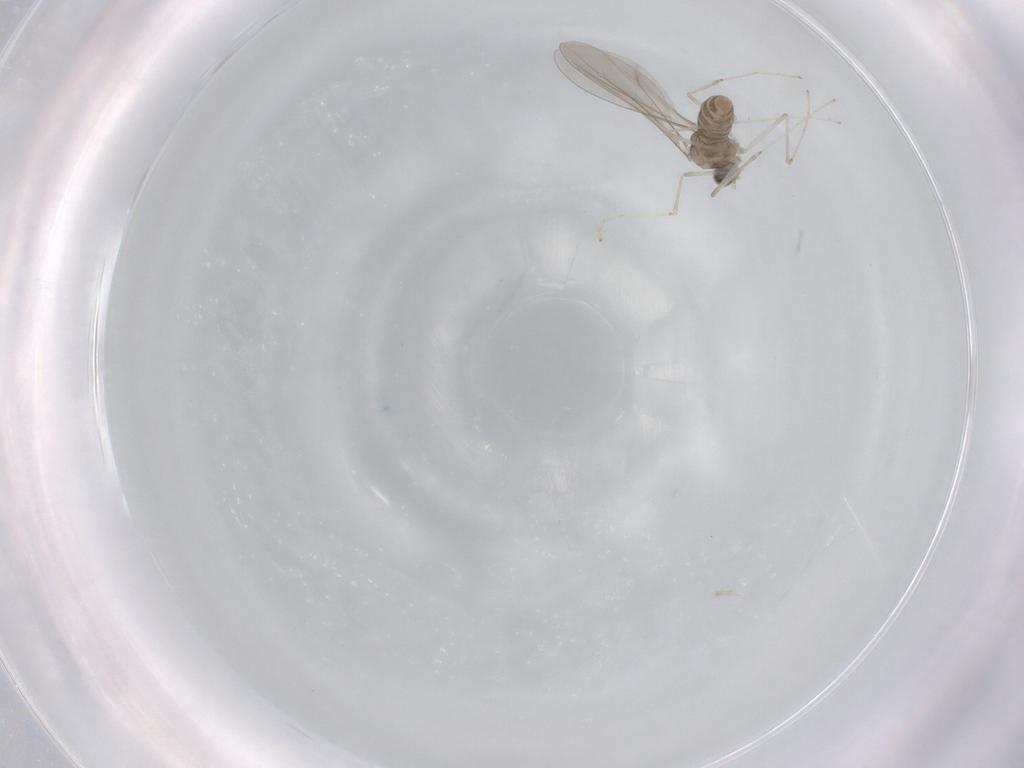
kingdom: Animalia
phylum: Arthropoda
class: Insecta
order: Diptera
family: Cecidomyiidae
